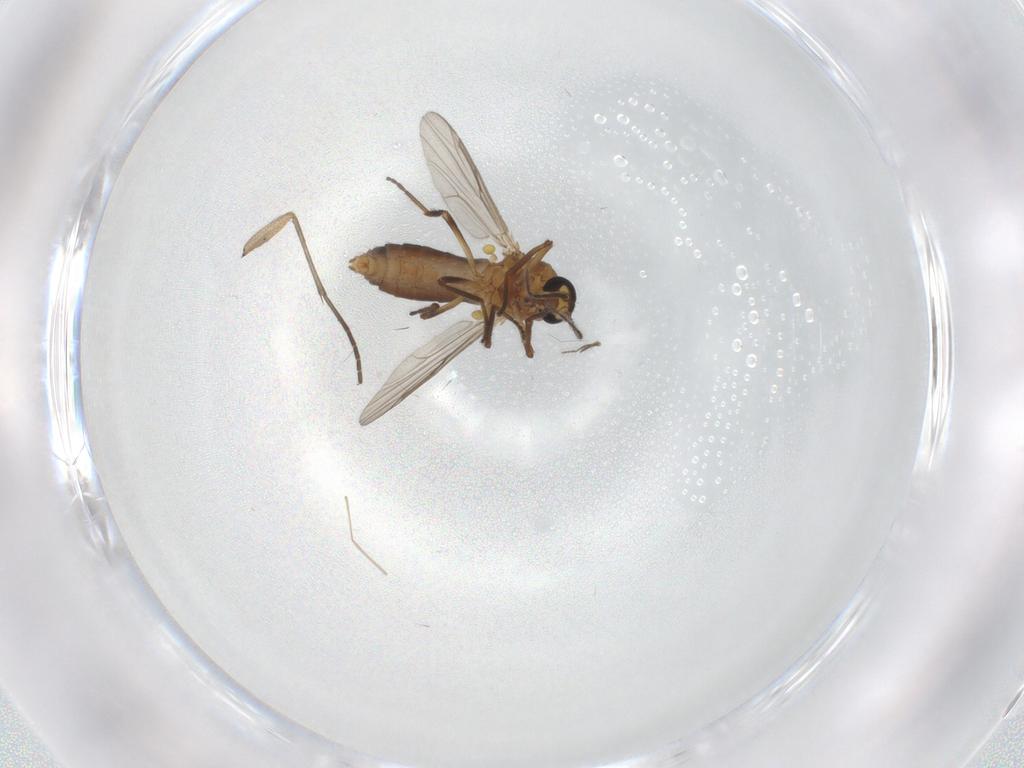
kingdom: Animalia
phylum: Arthropoda
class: Insecta
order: Diptera
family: Ceratopogonidae
